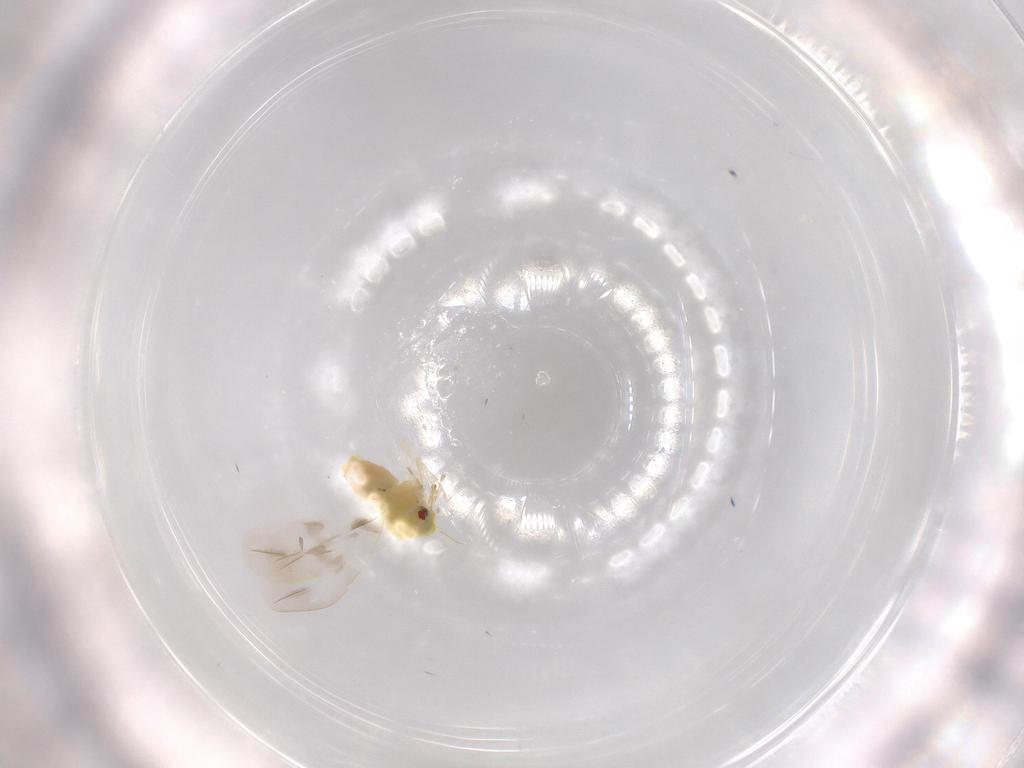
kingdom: Animalia
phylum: Arthropoda
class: Insecta
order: Hemiptera
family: Aleyrodidae
